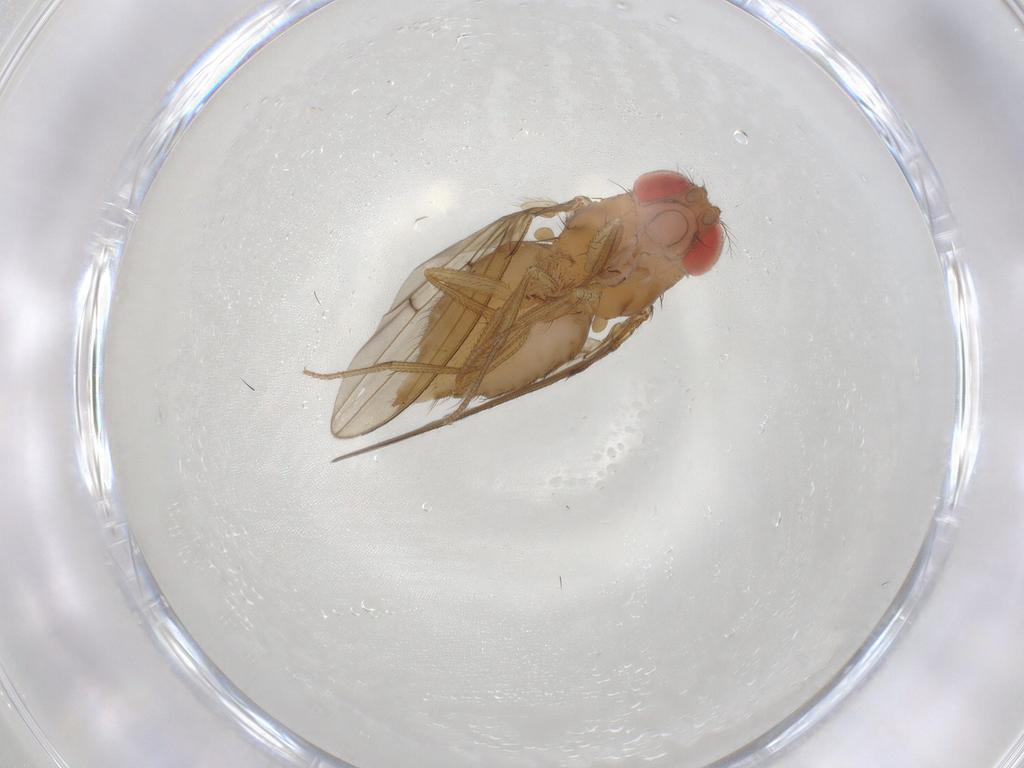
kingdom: Animalia
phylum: Arthropoda
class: Insecta
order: Diptera
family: Drosophilidae
